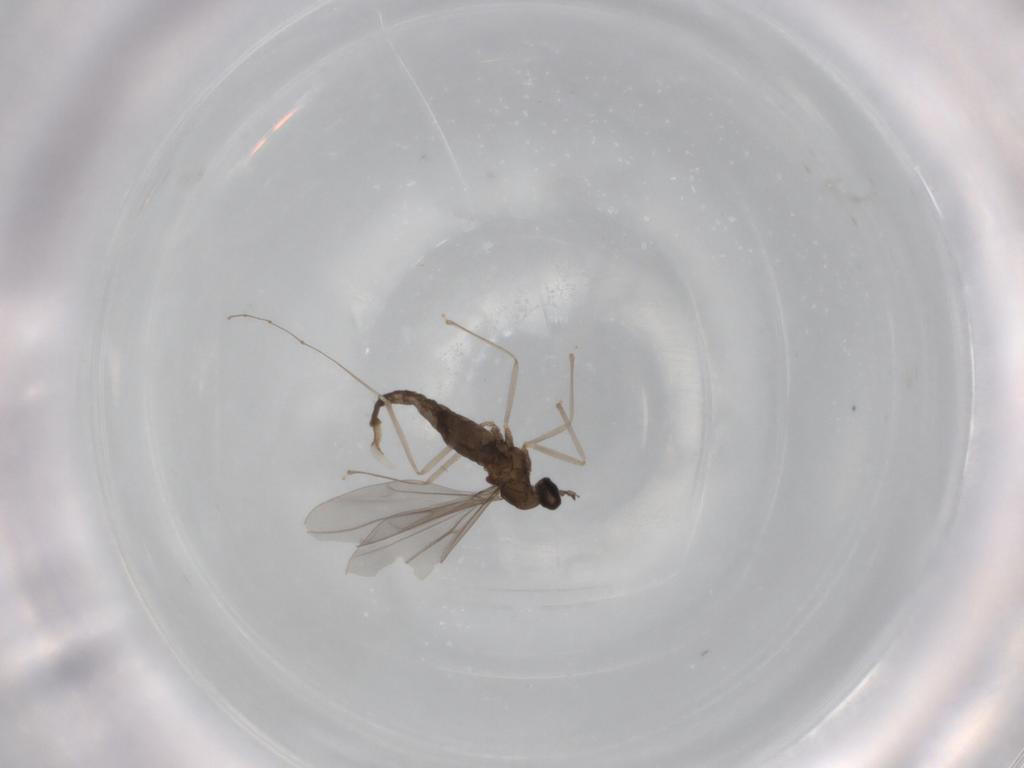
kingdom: Animalia
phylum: Arthropoda
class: Insecta
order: Diptera
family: Cecidomyiidae
